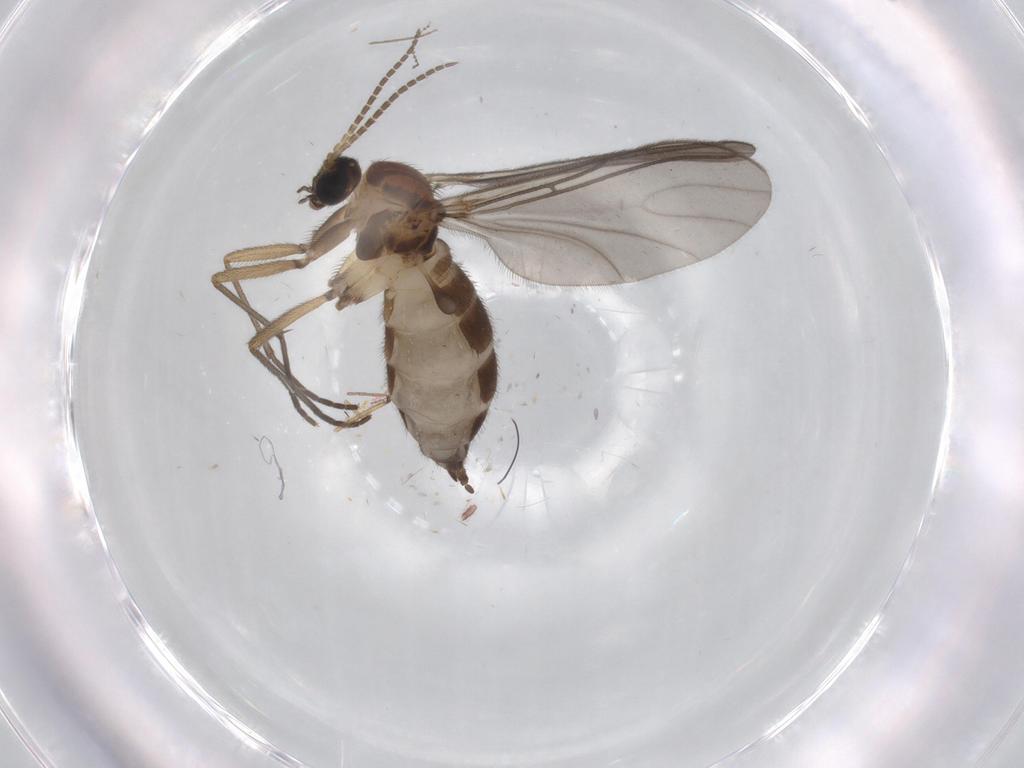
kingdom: Animalia
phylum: Arthropoda
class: Insecta
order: Diptera
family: Sciaridae
